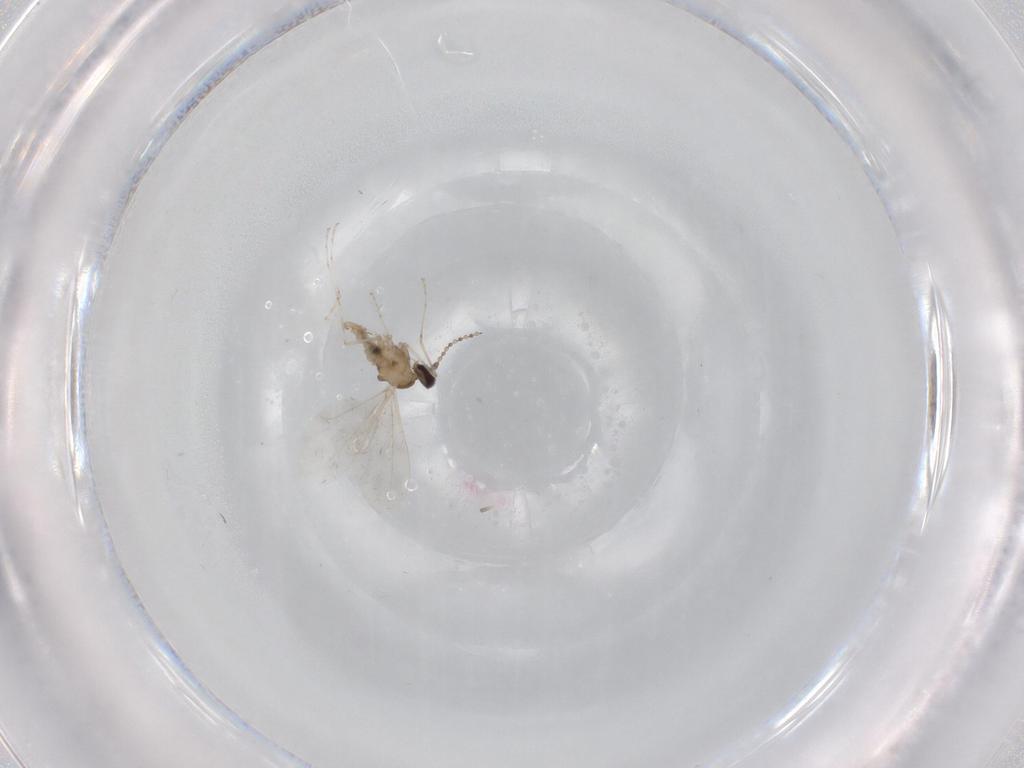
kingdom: Animalia
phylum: Arthropoda
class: Insecta
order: Diptera
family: Cecidomyiidae
